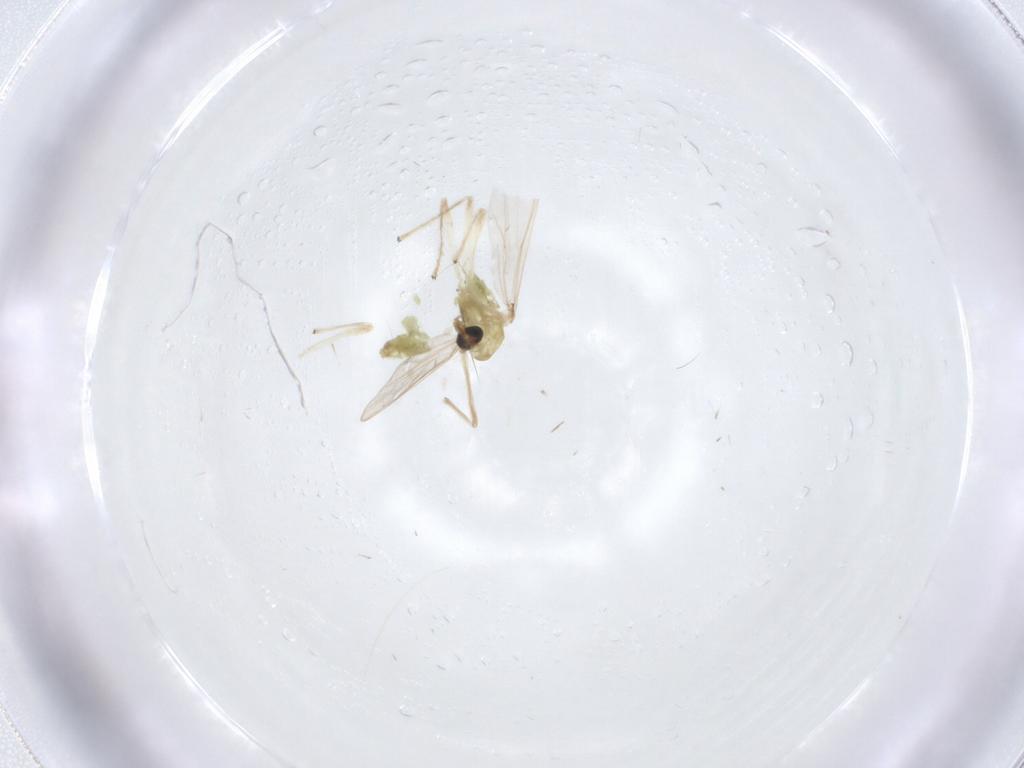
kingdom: Animalia
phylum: Arthropoda
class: Insecta
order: Diptera
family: Chironomidae
